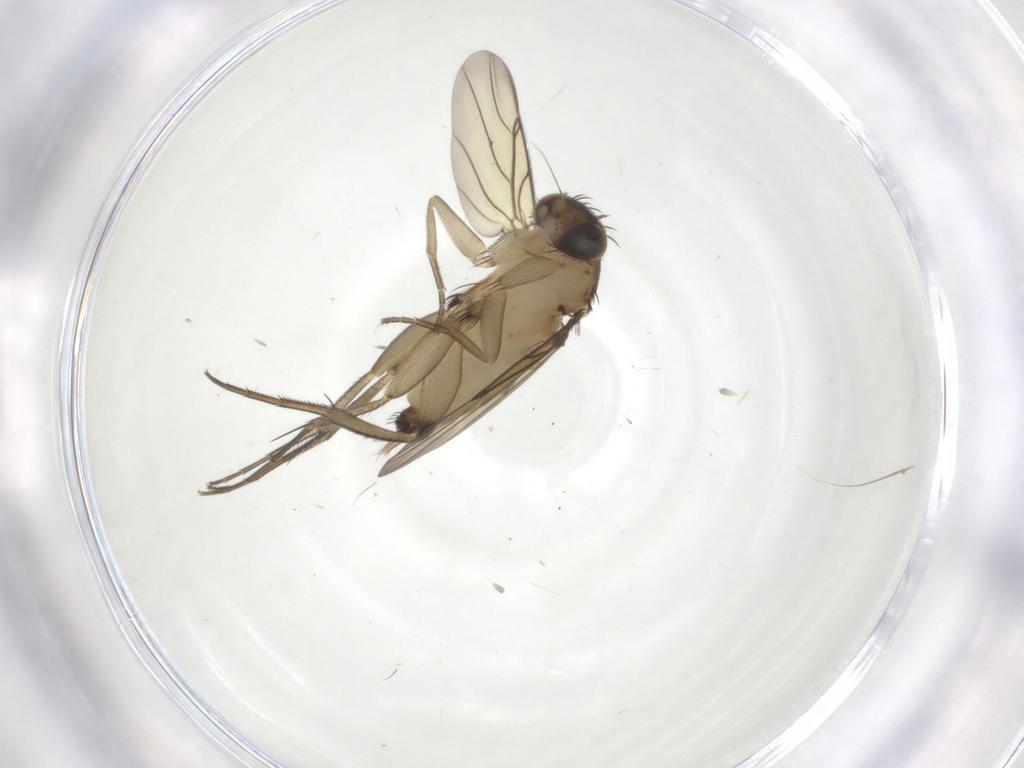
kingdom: Animalia
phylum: Arthropoda
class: Insecta
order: Diptera
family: Phoridae
